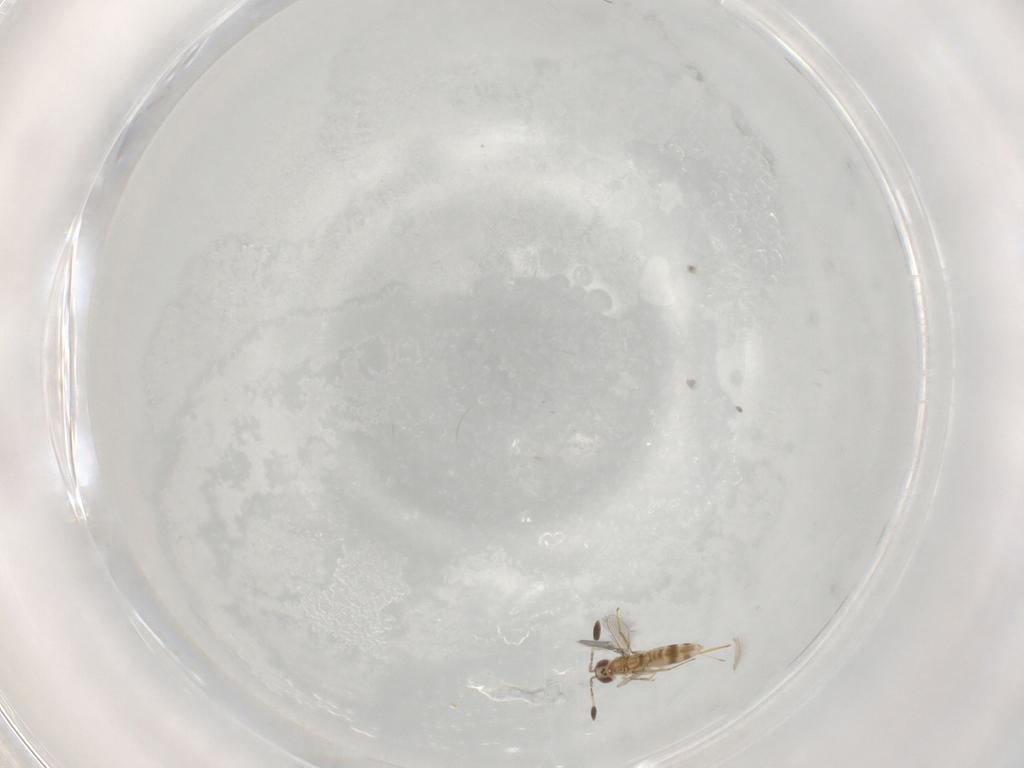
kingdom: Animalia
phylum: Arthropoda
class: Insecta
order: Hymenoptera
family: Mymaridae
